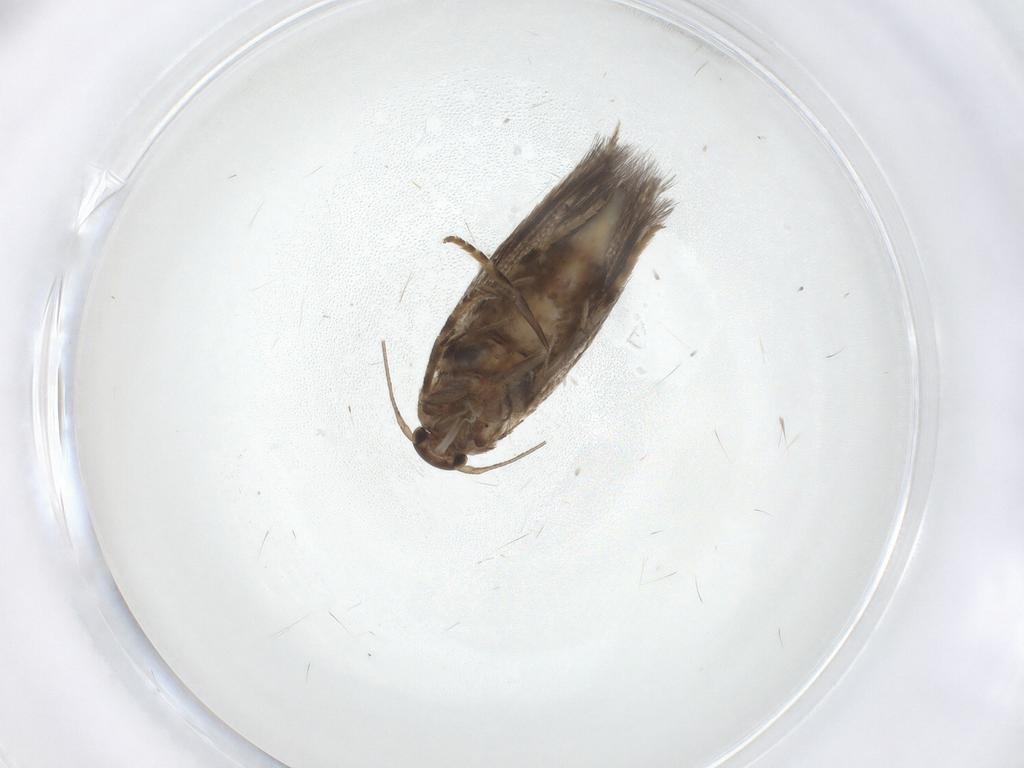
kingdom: Animalia
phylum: Arthropoda
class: Insecta
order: Lepidoptera
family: Elachistidae
